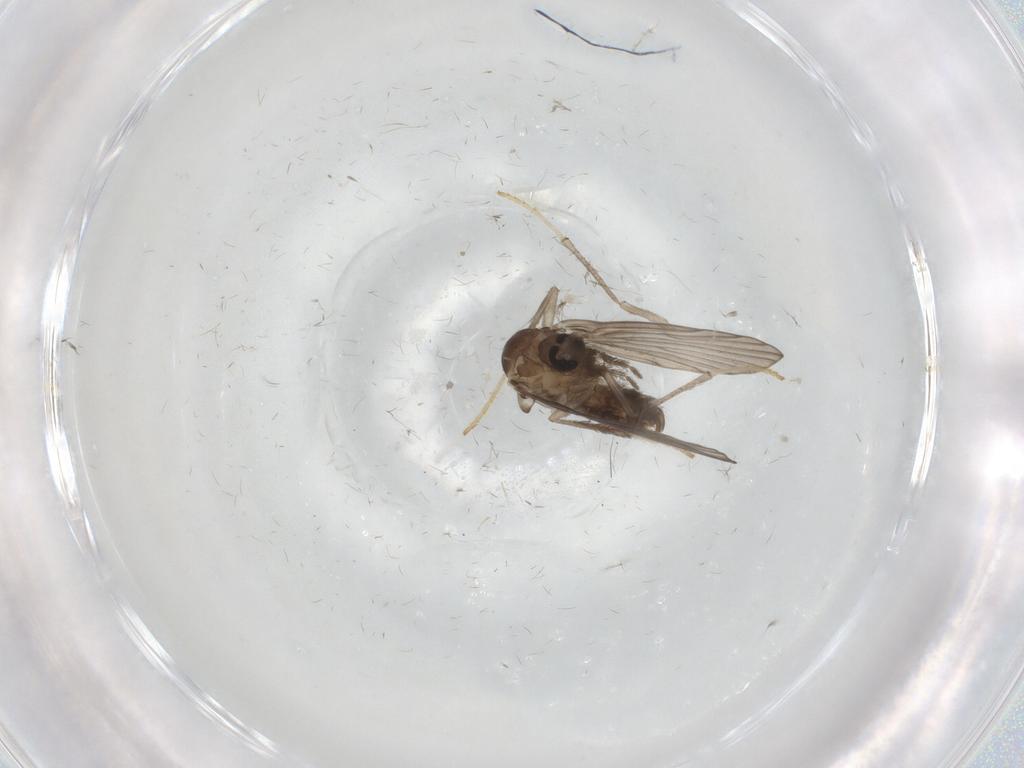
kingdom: Animalia
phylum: Arthropoda
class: Insecta
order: Diptera
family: Psychodidae
